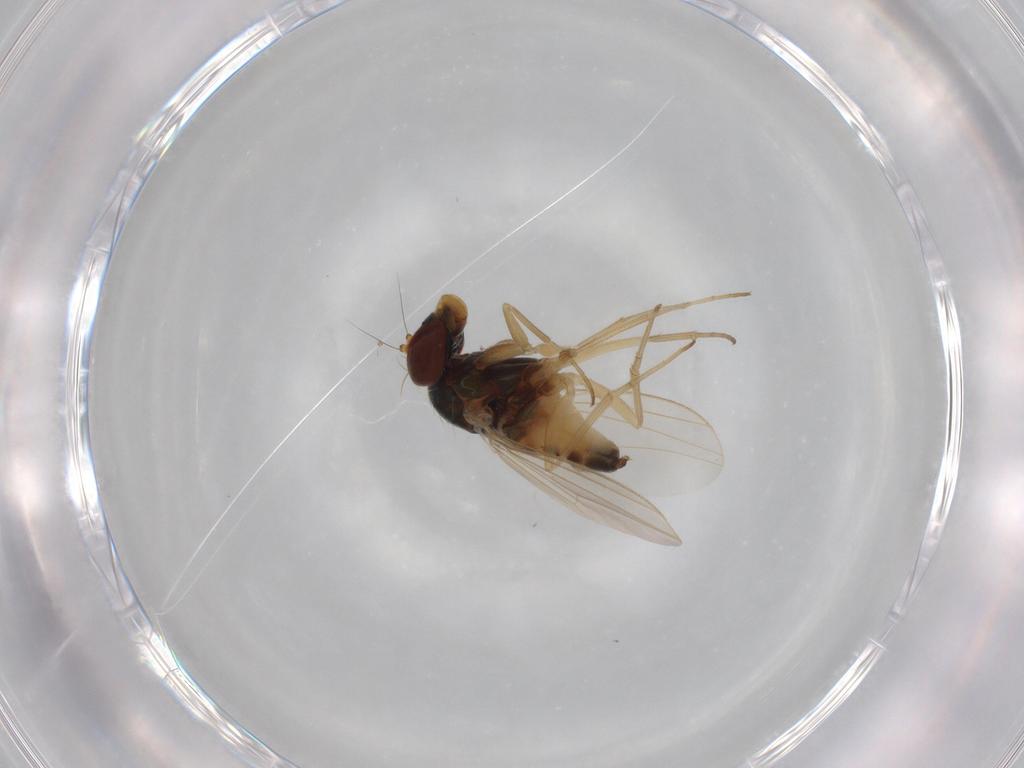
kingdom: Animalia
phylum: Arthropoda
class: Insecta
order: Diptera
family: Dolichopodidae
